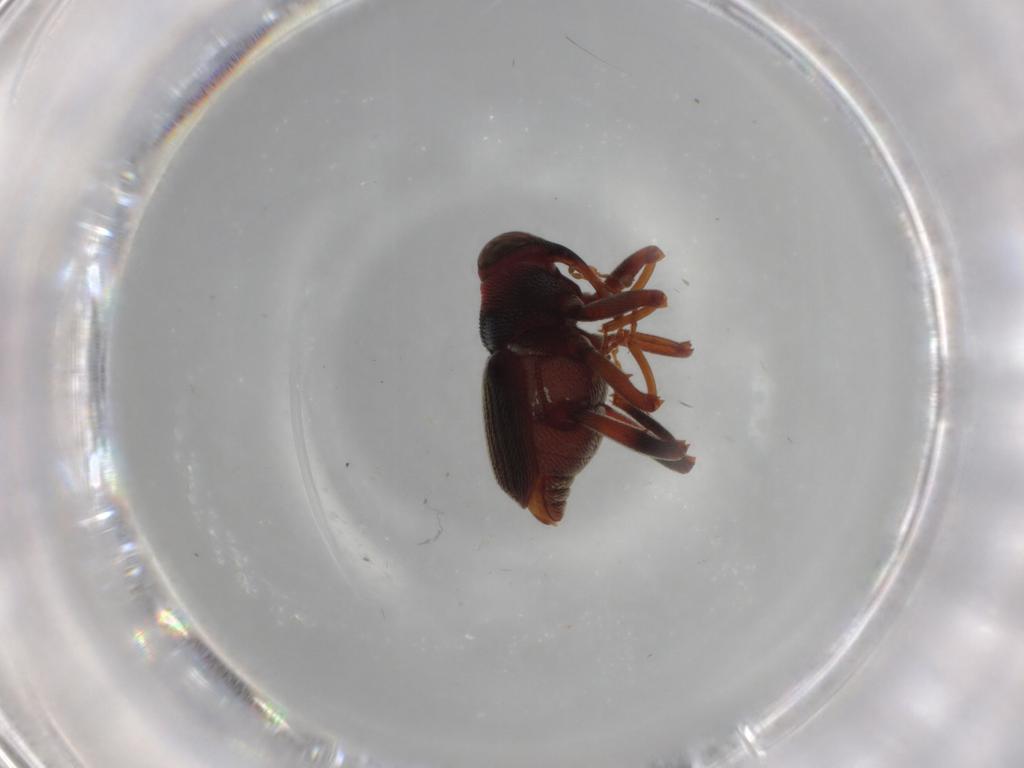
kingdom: Animalia
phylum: Arthropoda
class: Insecta
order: Coleoptera
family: Curculionidae
